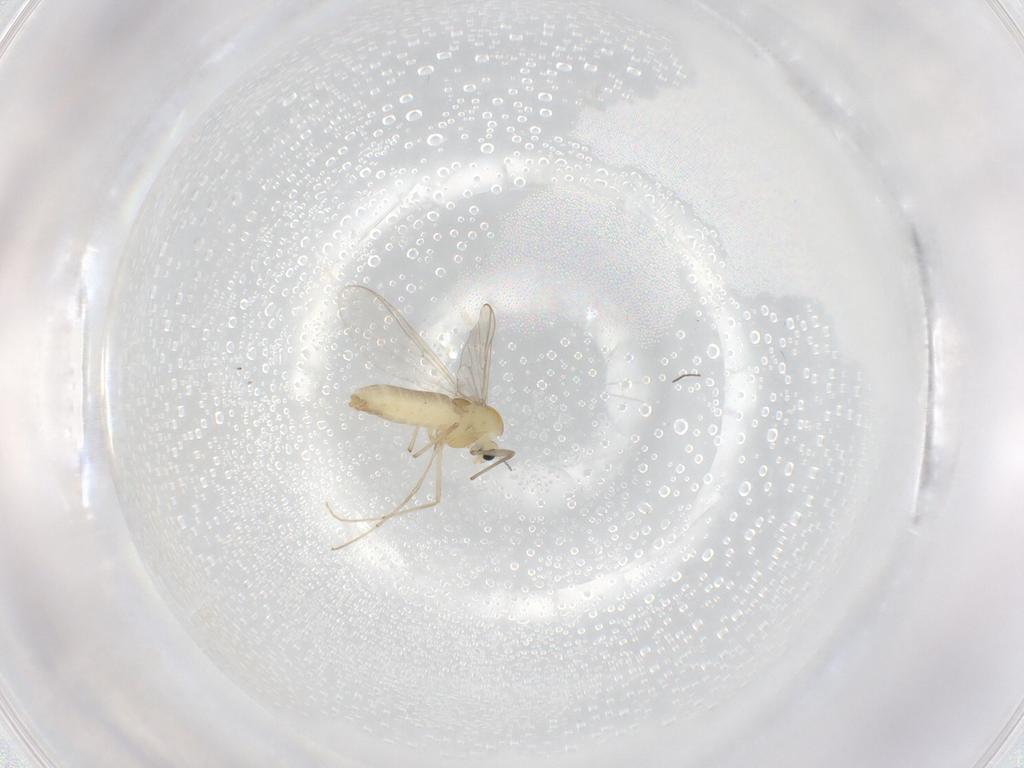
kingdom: Animalia
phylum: Arthropoda
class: Insecta
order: Diptera
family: Chironomidae
